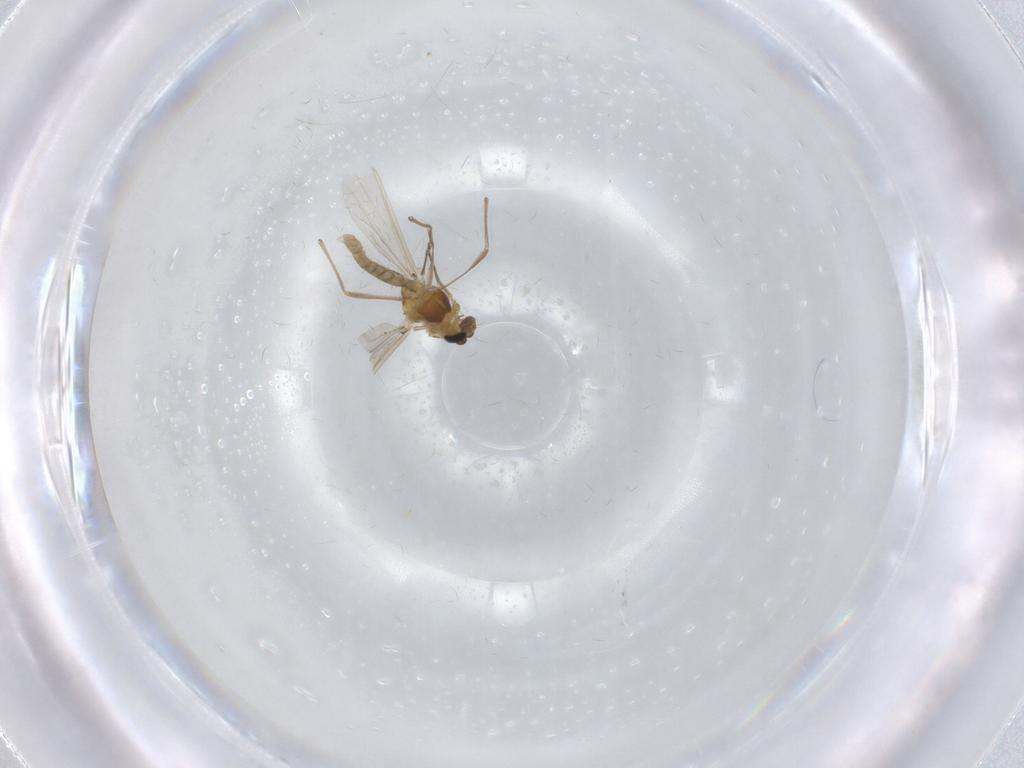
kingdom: Animalia
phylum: Arthropoda
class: Insecta
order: Diptera
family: Chironomidae
